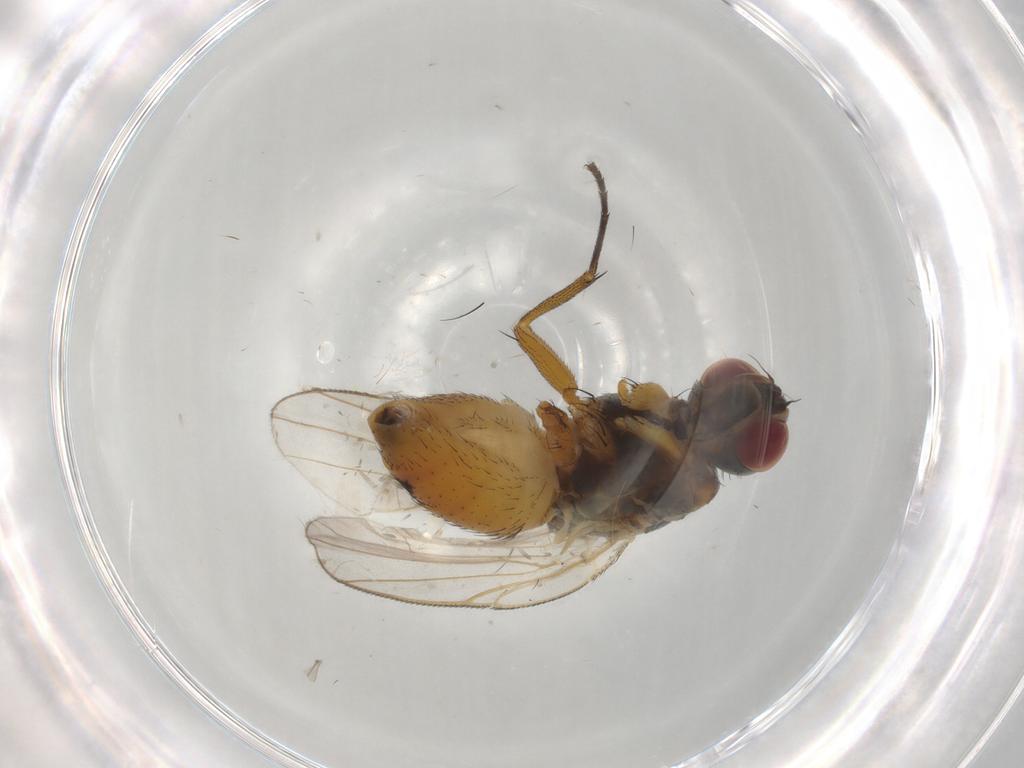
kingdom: Animalia
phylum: Arthropoda
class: Insecta
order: Diptera
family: Muscidae
